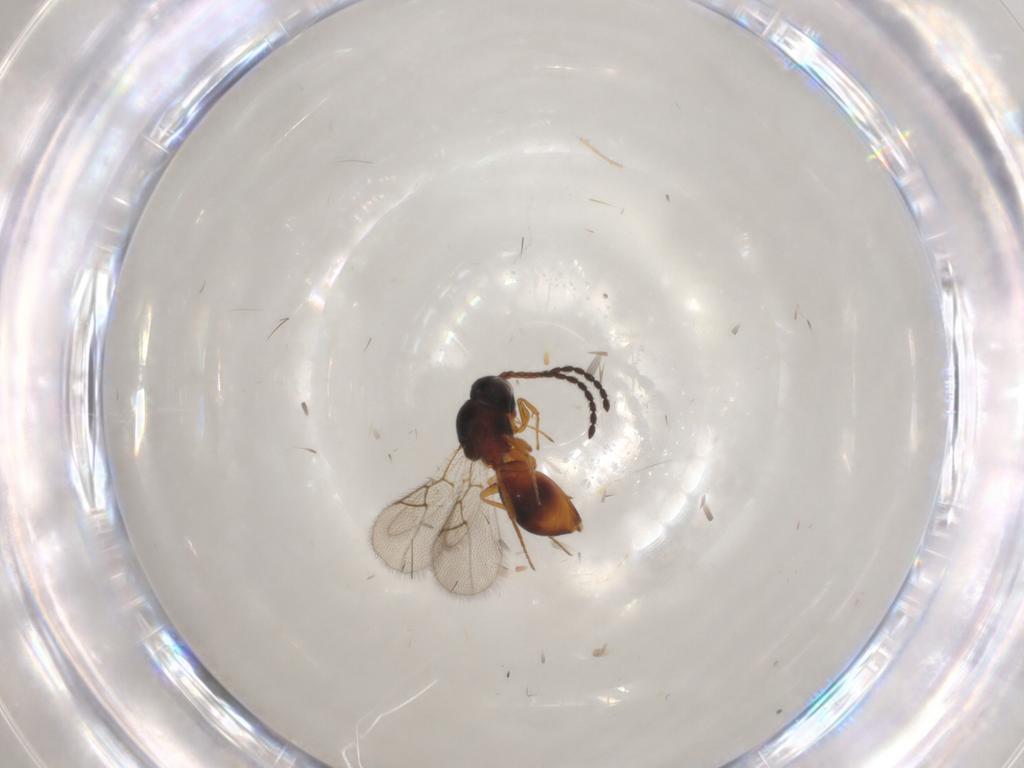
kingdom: Animalia
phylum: Arthropoda
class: Insecta
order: Hymenoptera
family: Figitidae
